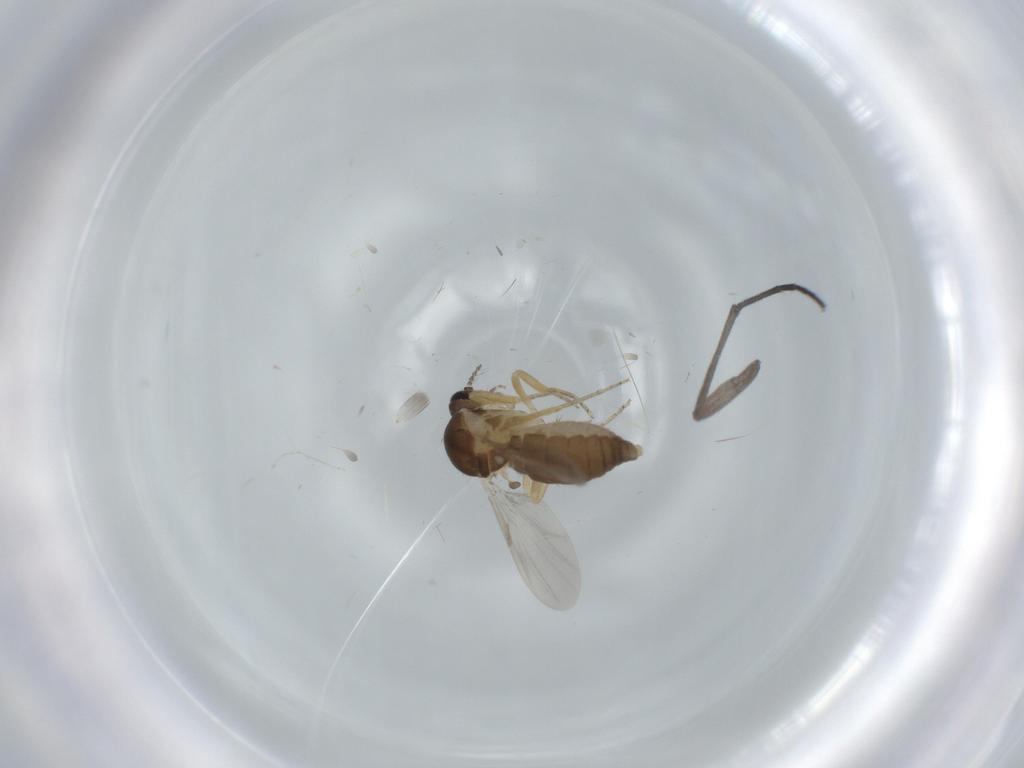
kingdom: Animalia
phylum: Arthropoda
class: Insecta
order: Diptera
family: Ceratopogonidae
